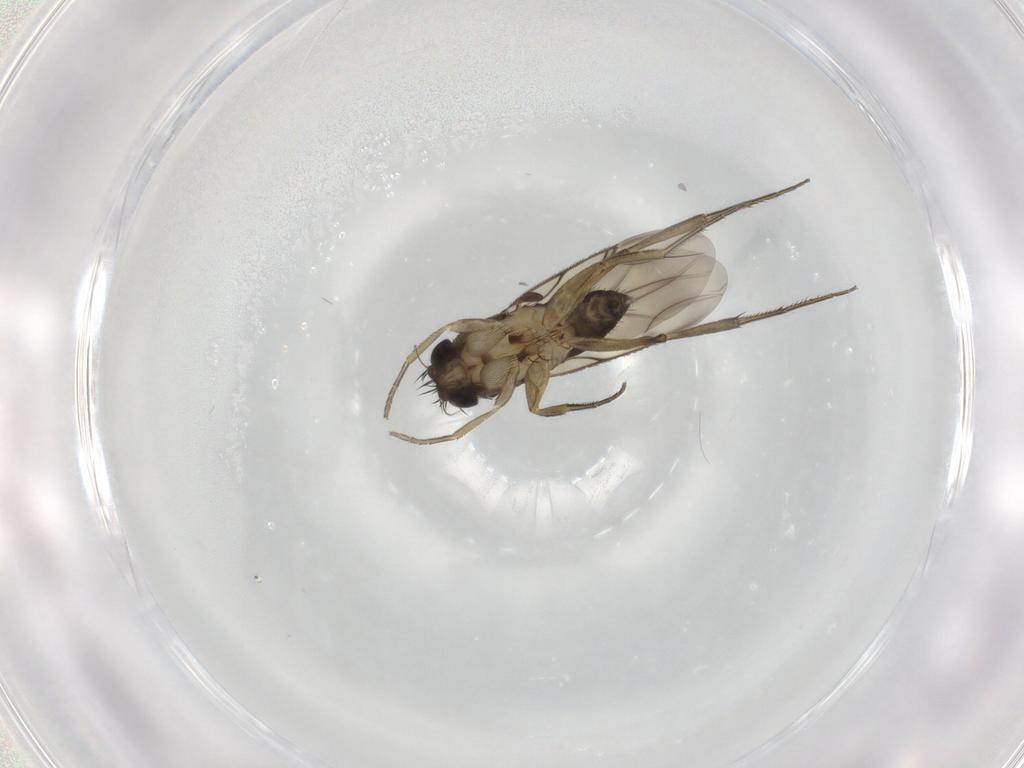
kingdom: Animalia
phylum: Arthropoda
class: Insecta
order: Diptera
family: Phoridae
